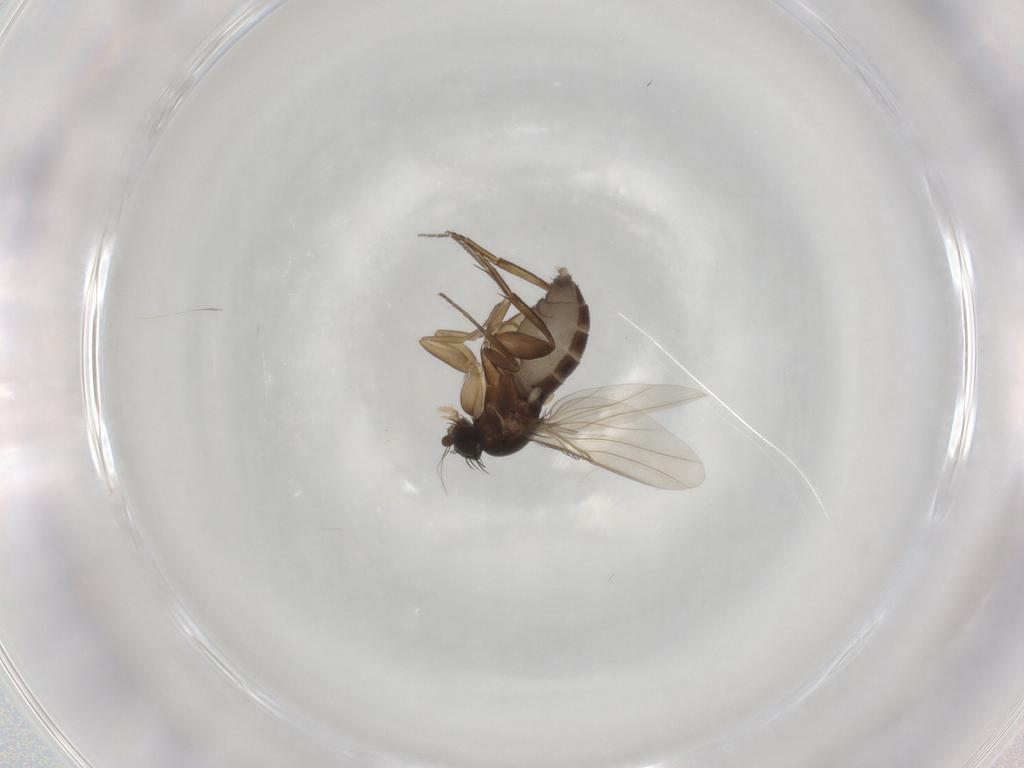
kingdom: Animalia
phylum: Arthropoda
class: Insecta
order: Diptera
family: Phoridae
